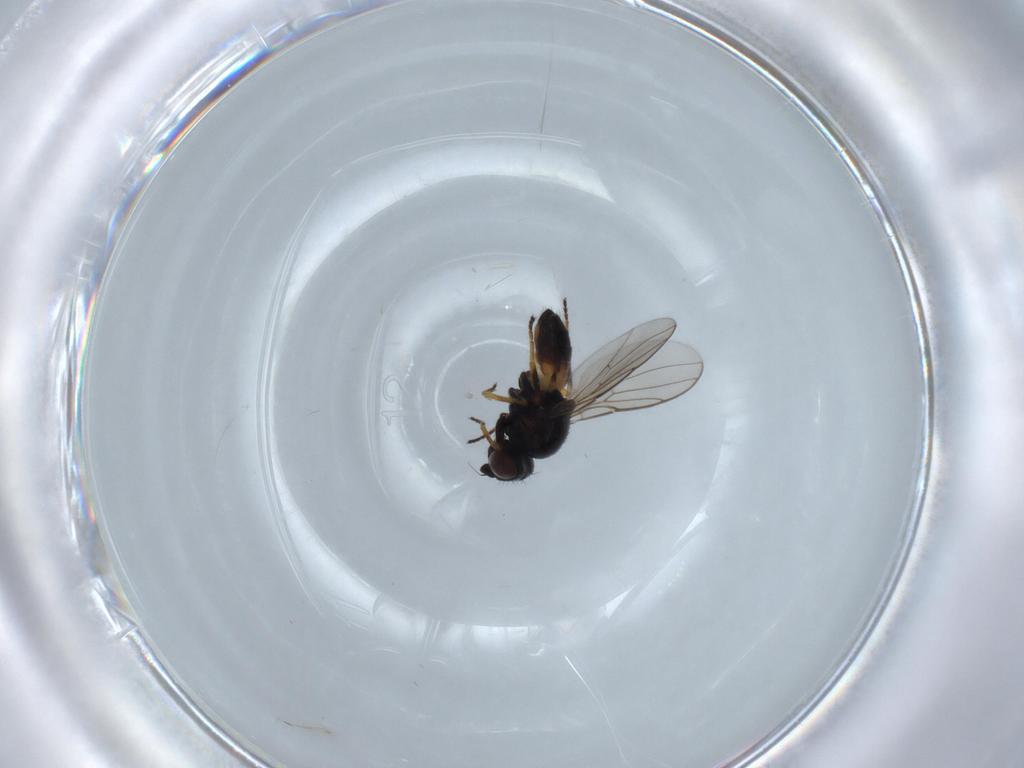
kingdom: Animalia
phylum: Arthropoda
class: Insecta
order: Diptera
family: Chloropidae
